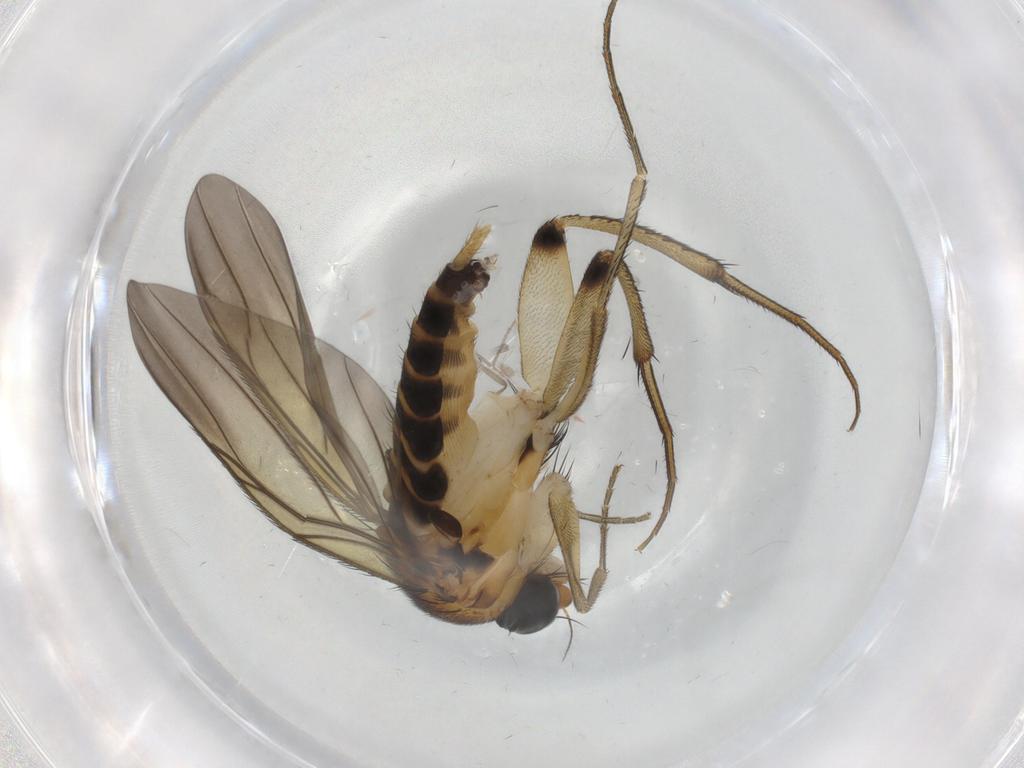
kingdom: Animalia
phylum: Arthropoda
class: Insecta
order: Diptera
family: Phoridae
